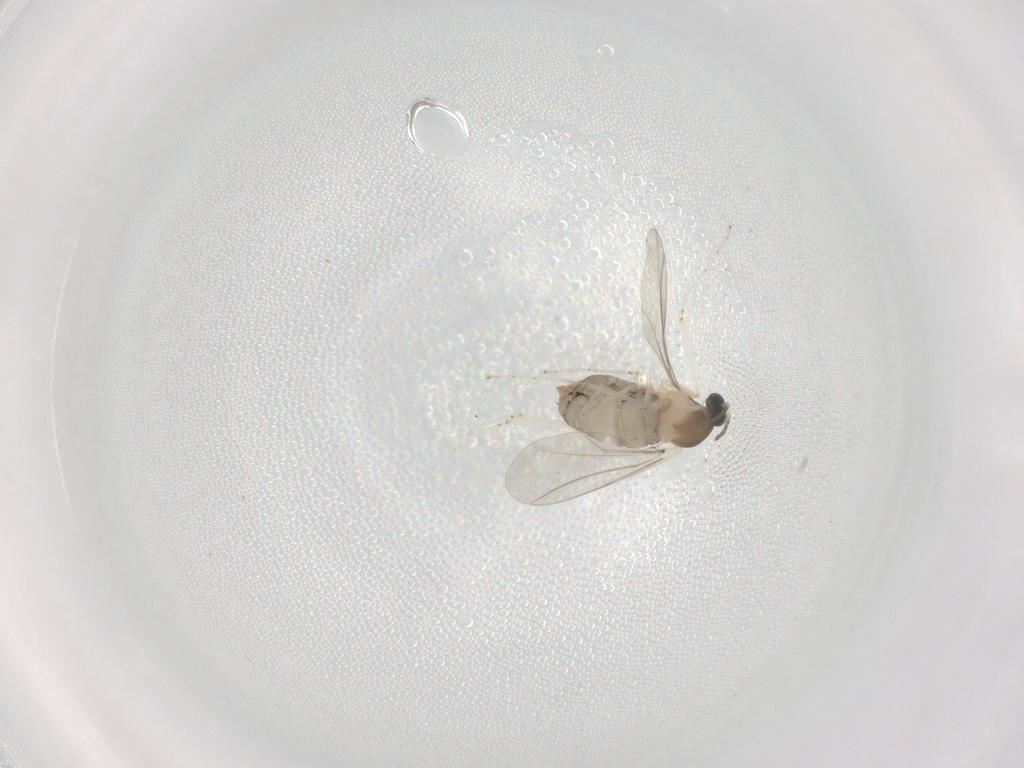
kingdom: Animalia
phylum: Arthropoda
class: Insecta
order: Diptera
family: Cecidomyiidae
